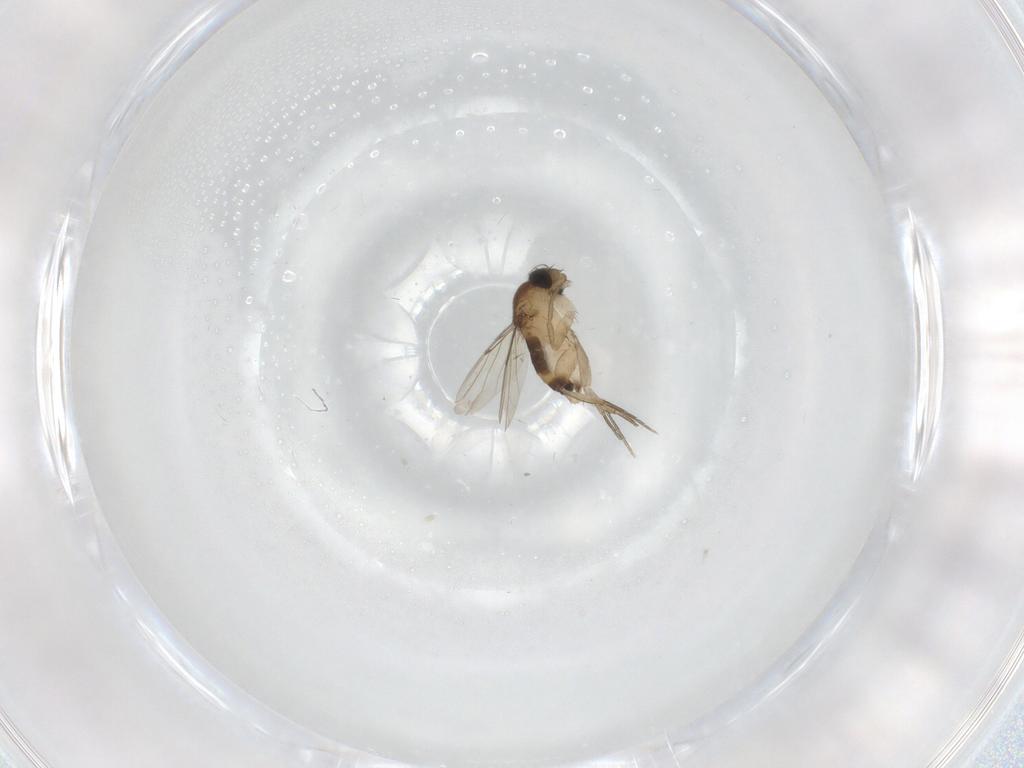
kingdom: Animalia
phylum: Arthropoda
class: Insecta
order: Diptera
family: Phoridae
